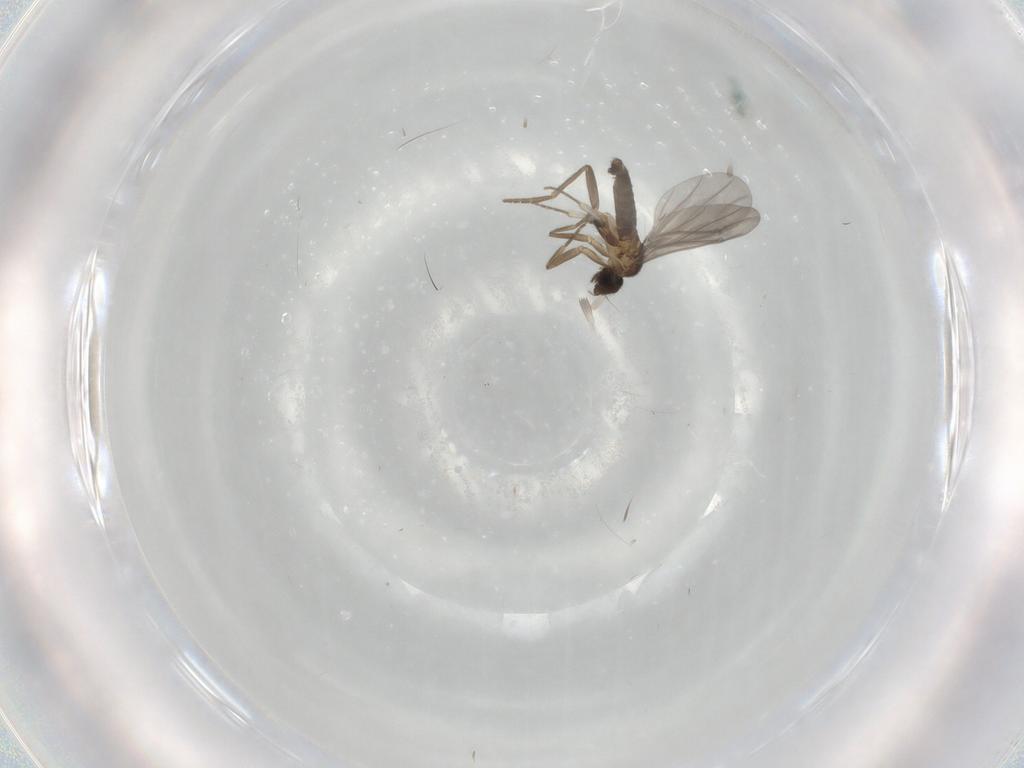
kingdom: Animalia
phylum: Arthropoda
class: Insecta
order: Diptera
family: Phoridae
